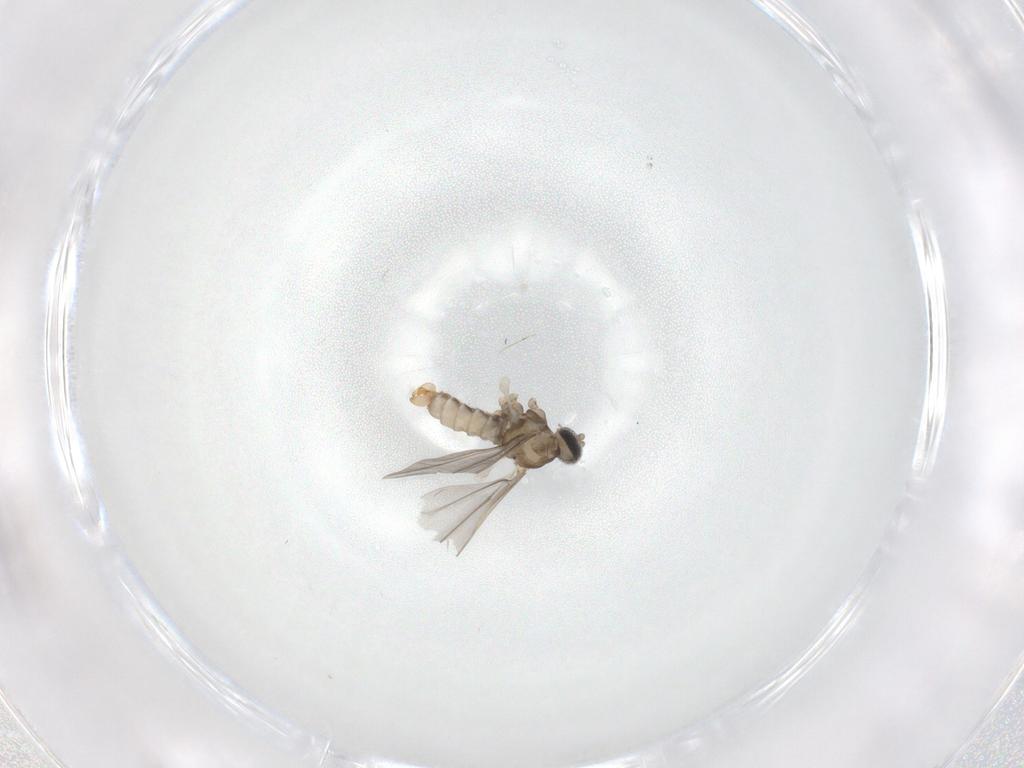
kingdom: Animalia
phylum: Arthropoda
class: Insecta
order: Diptera
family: Cecidomyiidae
